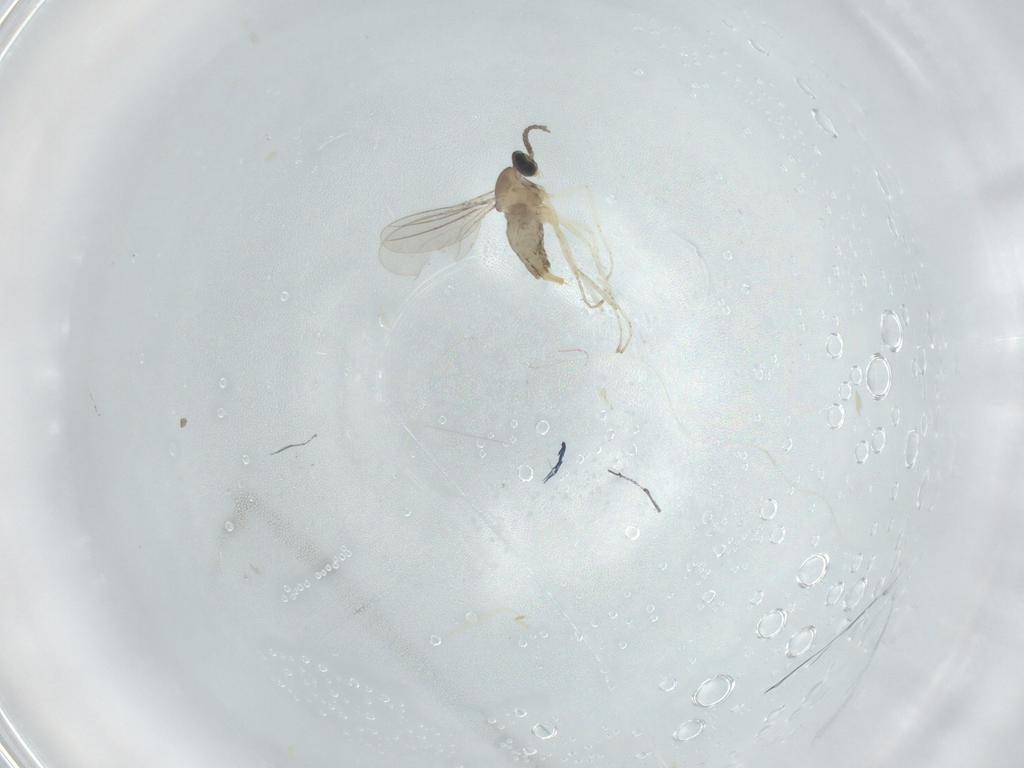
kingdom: Animalia
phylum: Arthropoda
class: Insecta
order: Diptera
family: Cecidomyiidae
